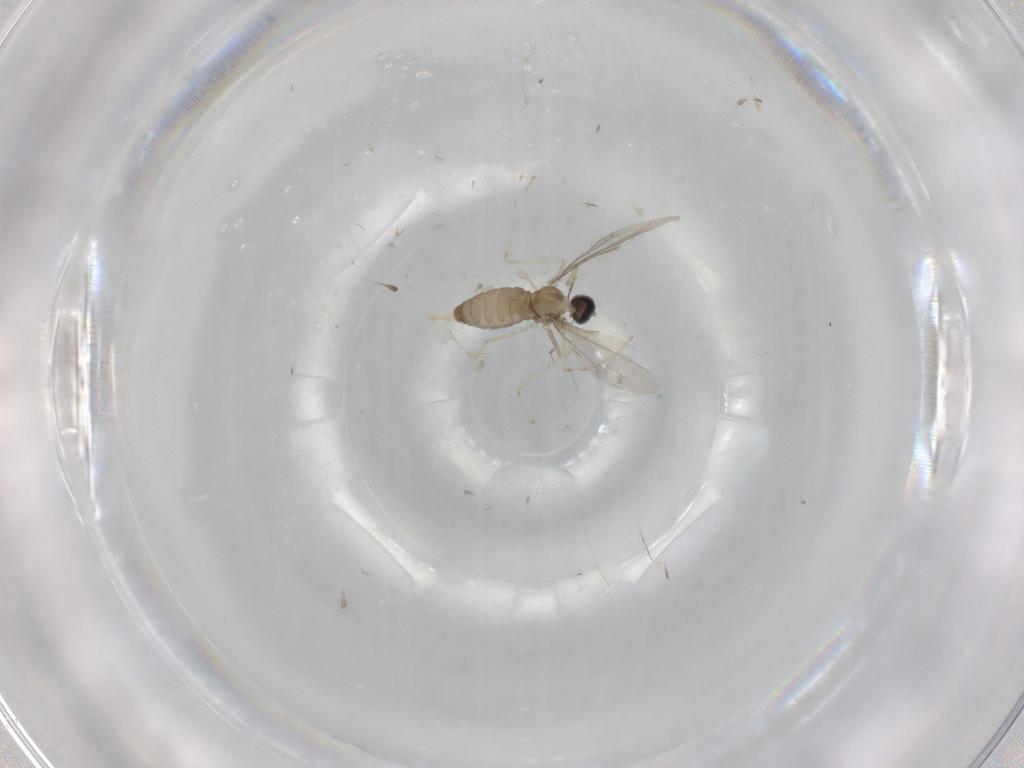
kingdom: Animalia
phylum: Arthropoda
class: Insecta
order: Diptera
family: Cecidomyiidae
